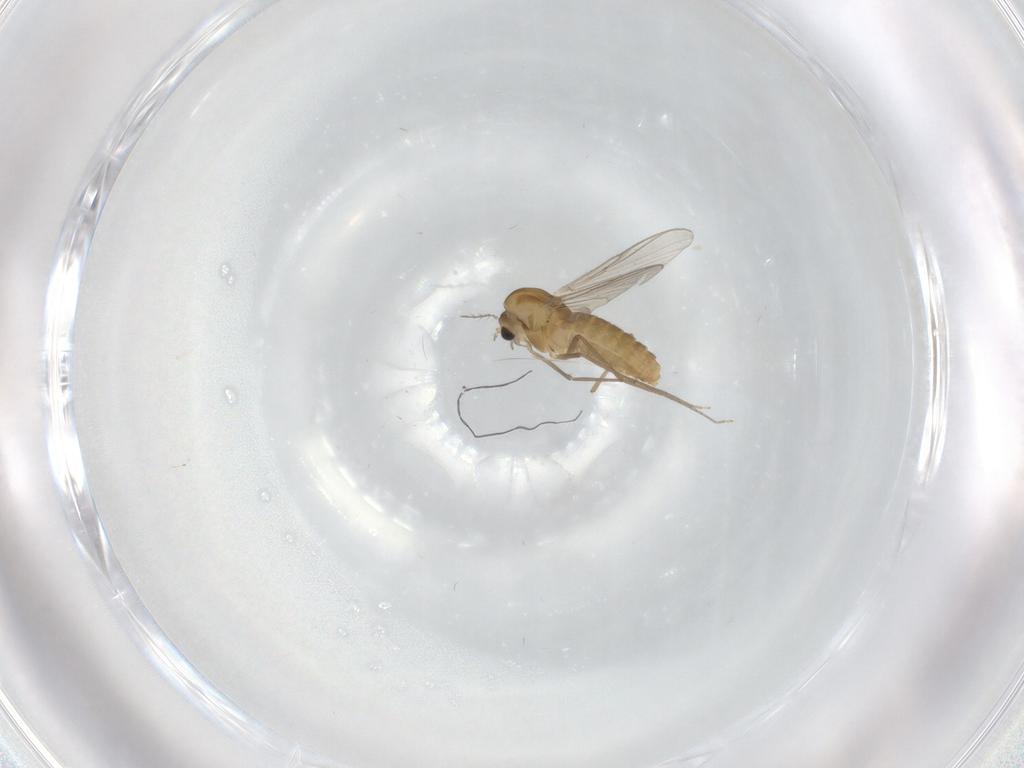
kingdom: Animalia
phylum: Arthropoda
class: Insecta
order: Diptera
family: Chironomidae
